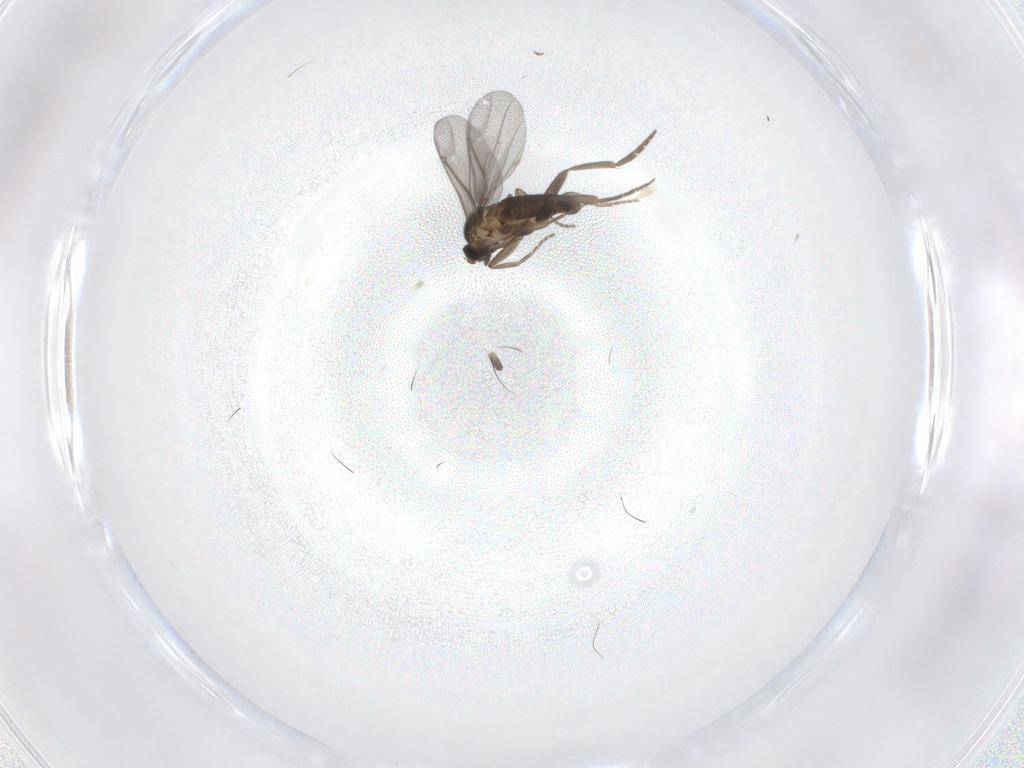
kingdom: Animalia
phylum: Arthropoda
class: Insecta
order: Diptera
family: Phoridae
